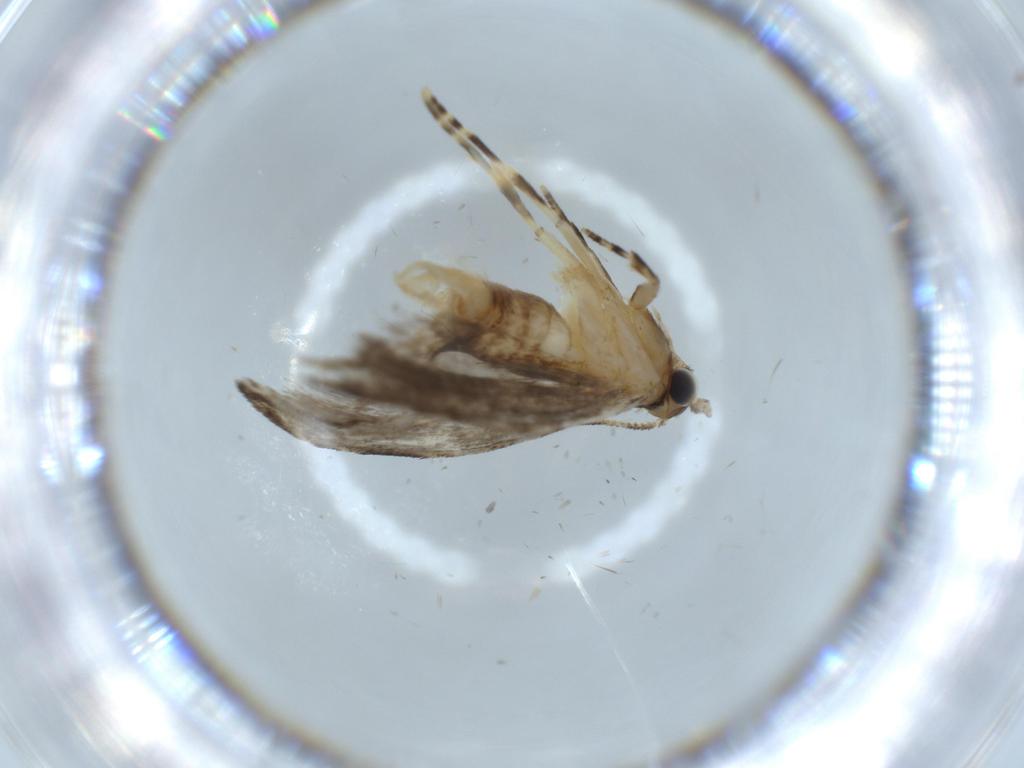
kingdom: Animalia
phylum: Arthropoda
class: Insecta
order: Lepidoptera
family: Tineidae
